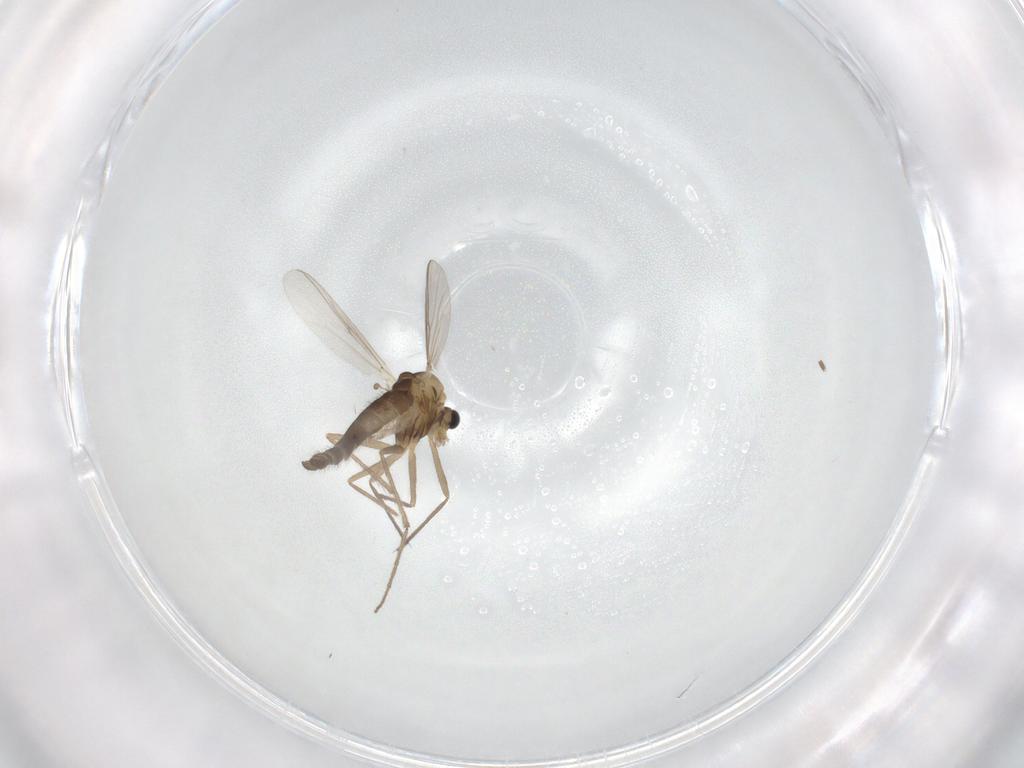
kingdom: Animalia
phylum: Arthropoda
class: Insecta
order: Diptera
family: Chironomidae
